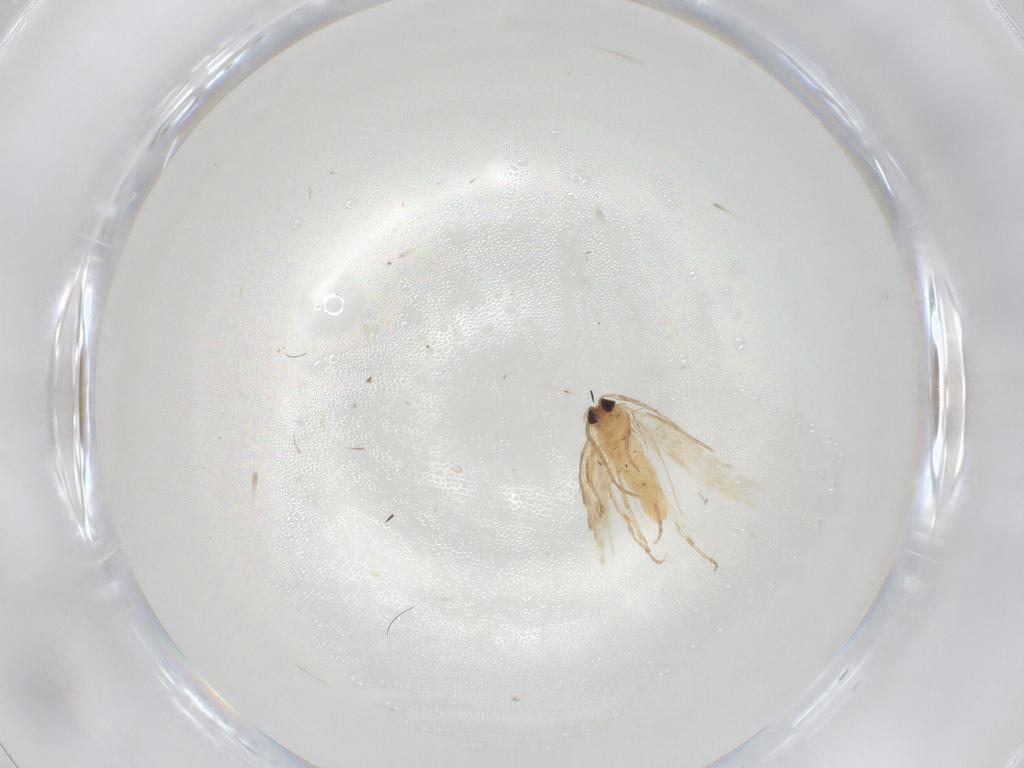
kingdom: Animalia
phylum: Arthropoda
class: Insecta
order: Lepidoptera
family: Nepticulidae
